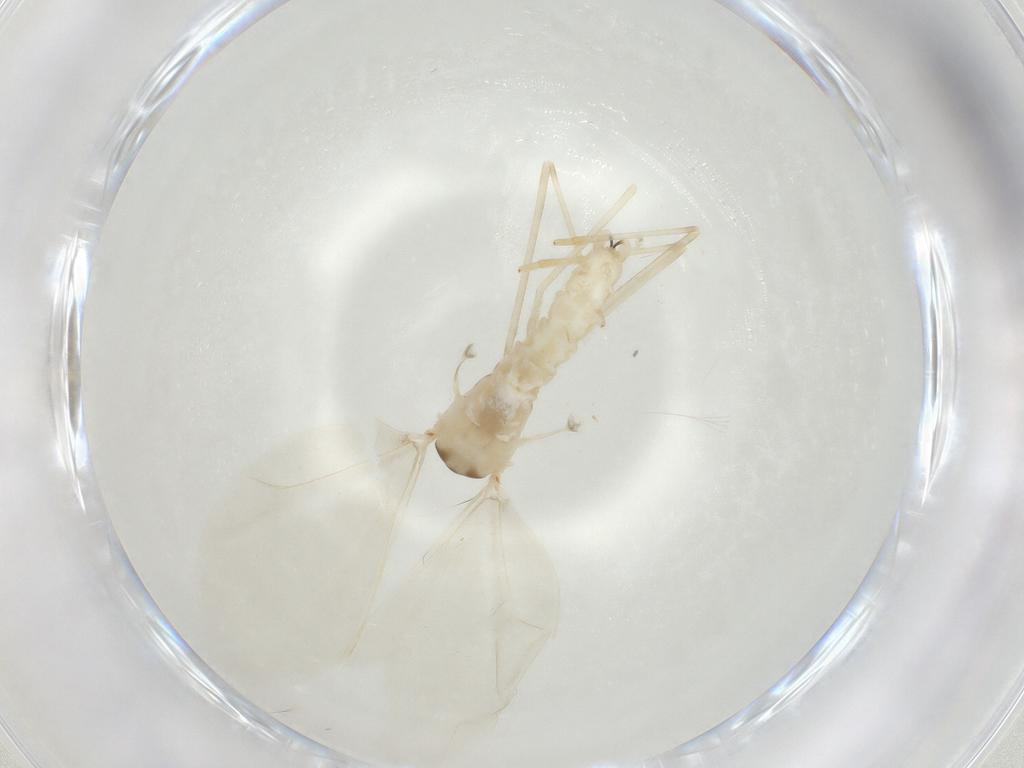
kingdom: Animalia
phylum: Arthropoda
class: Insecta
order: Diptera
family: Cecidomyiidae
